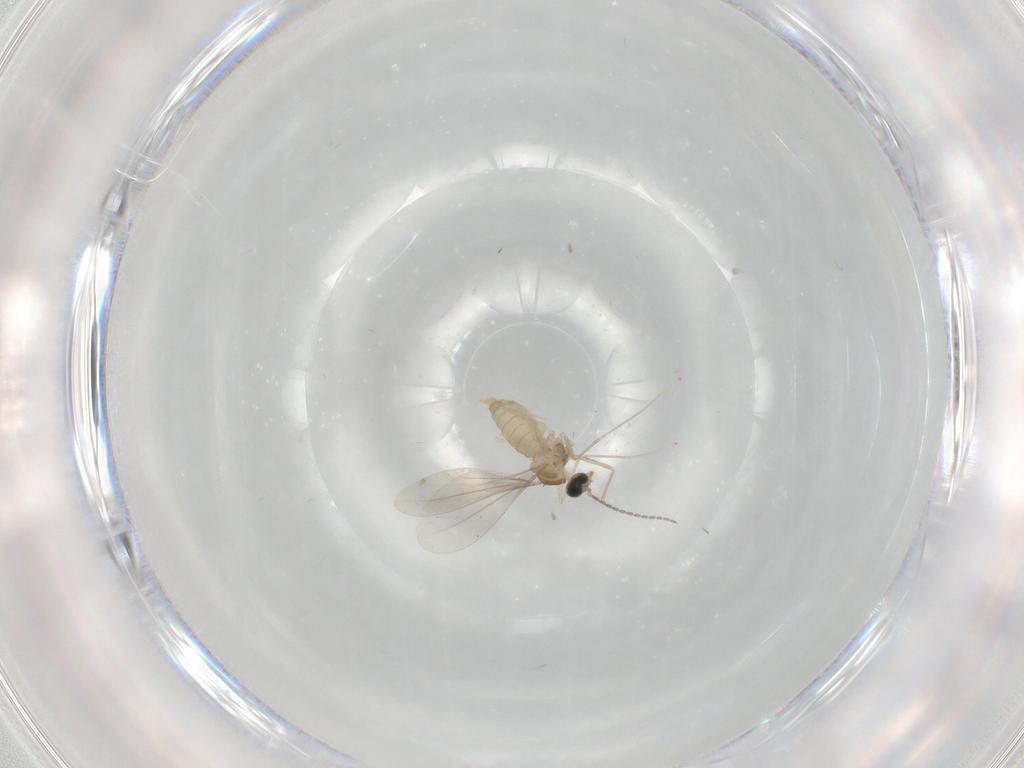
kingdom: Animalia
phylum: Arthropoda
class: Insecta
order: Diptera
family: Cecidomyiidae
